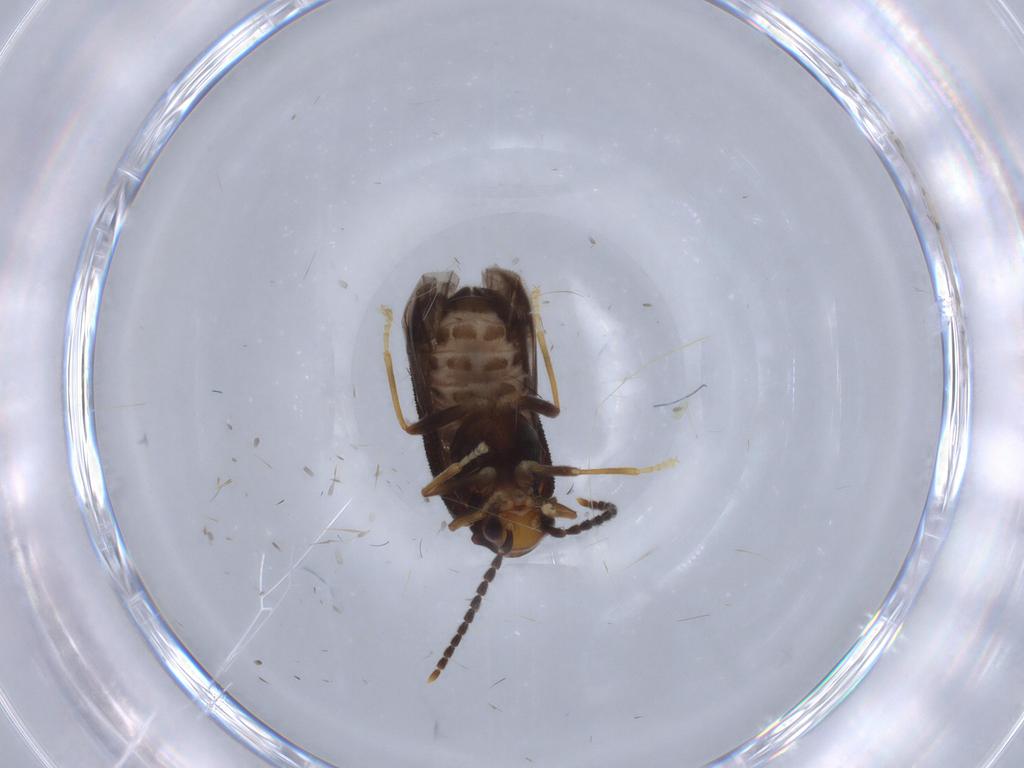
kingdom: Animalia
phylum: Arthropoda
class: Insecta
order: Coleoptera
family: Cantharidae
